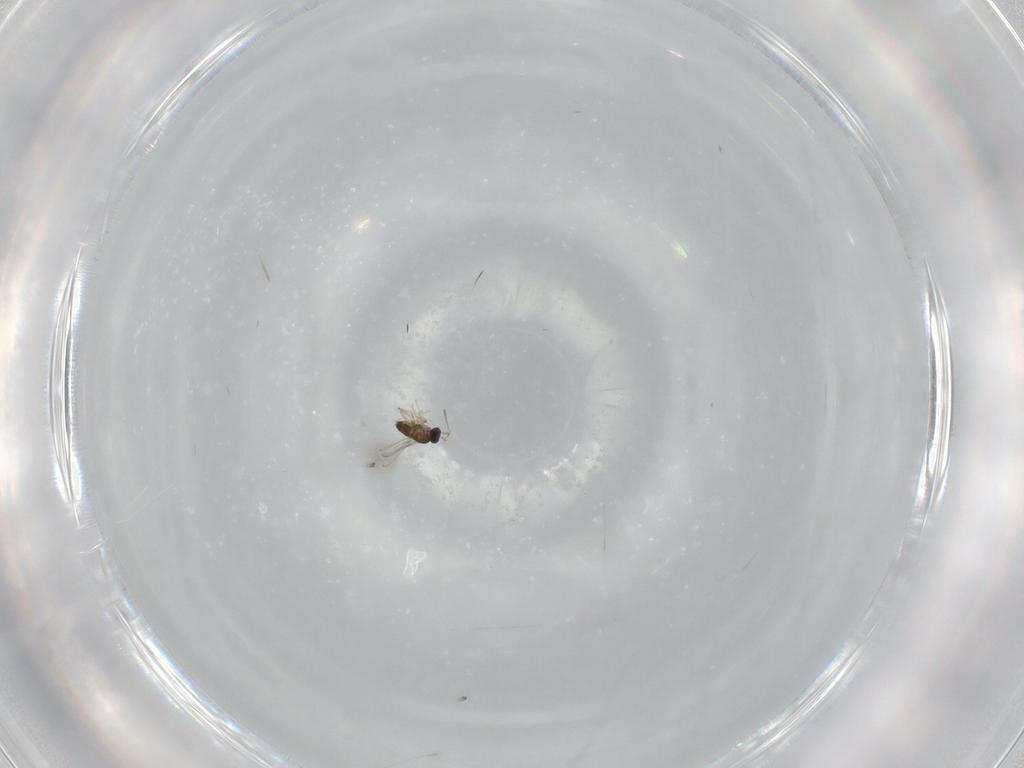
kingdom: Animalia
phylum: Arthropoda
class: Insecta
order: Hymenoptera
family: Mymaridae
